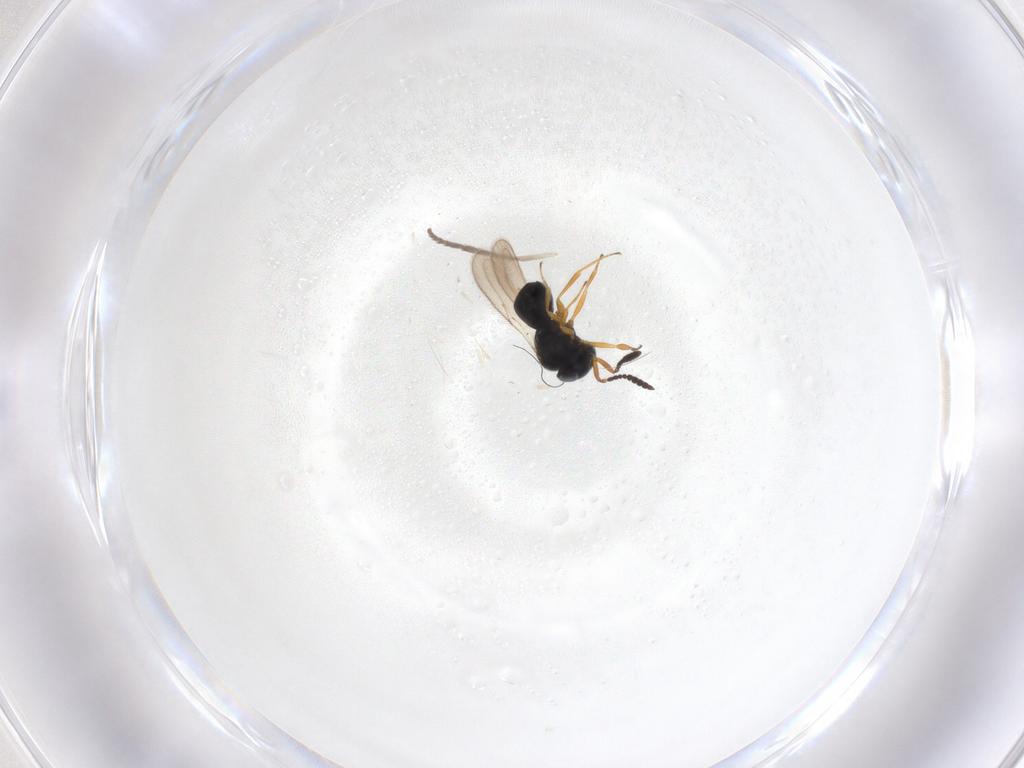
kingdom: Animalia
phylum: Arthropoda
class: Insecta
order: Hymenoptera
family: Scelionidae
